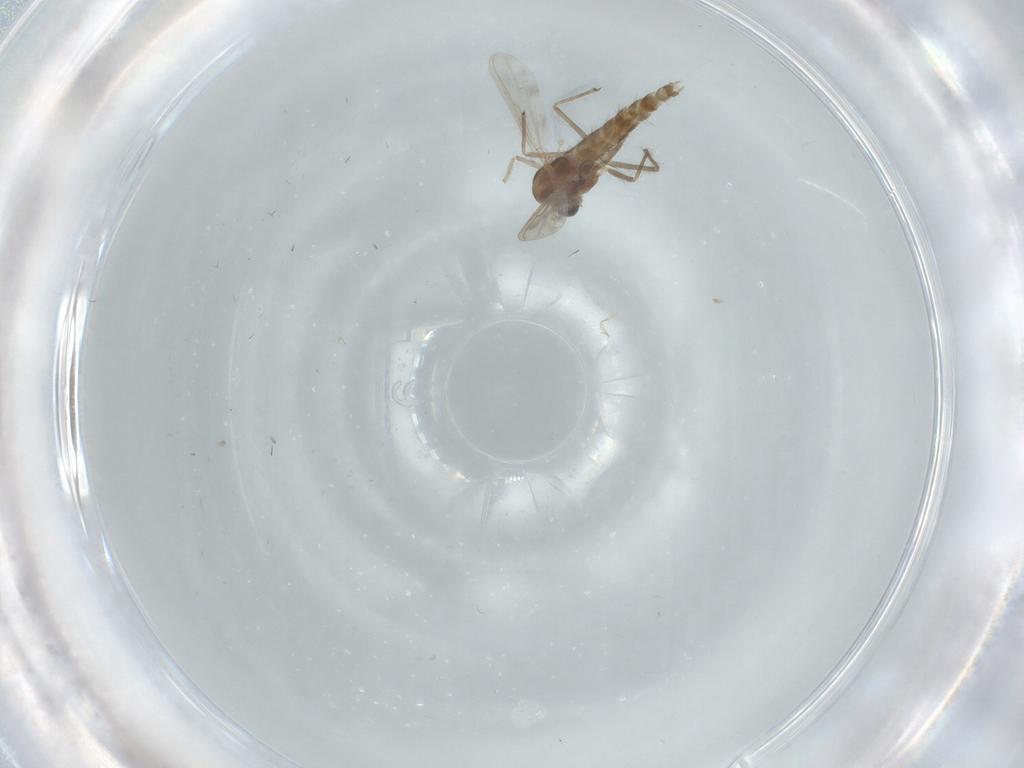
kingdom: Animalia
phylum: Arthropoda
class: Insecta
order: Diptera
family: Chironomidae
